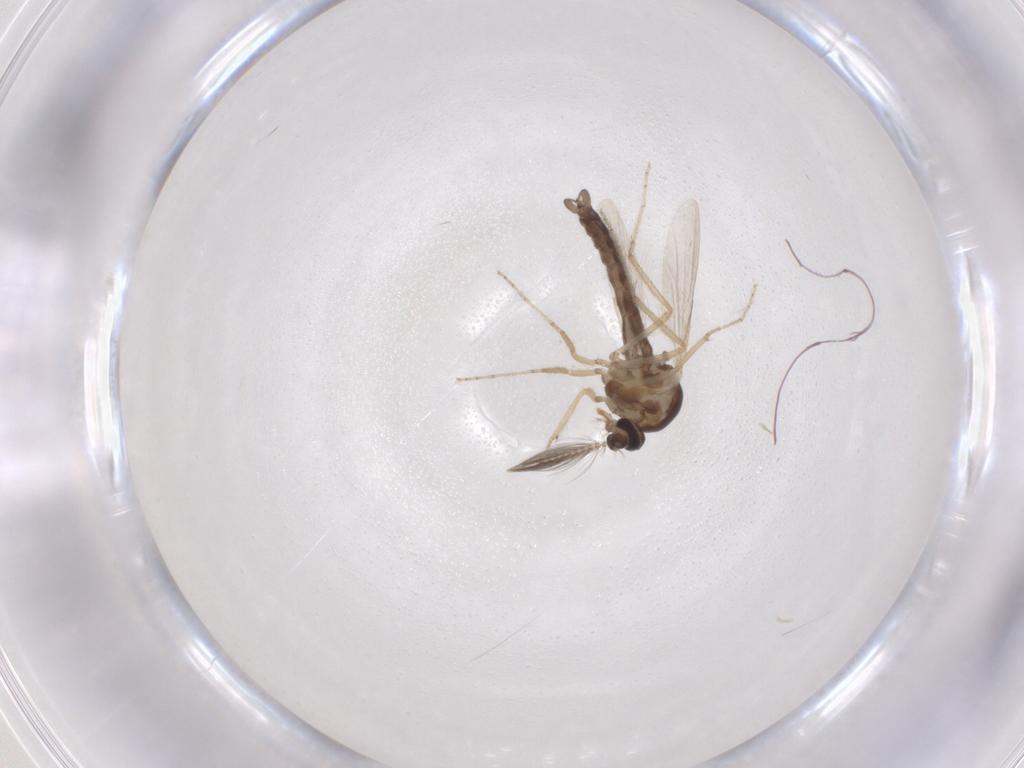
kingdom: Animalia
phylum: Arthropoda
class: Insecta
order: Diptera
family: Ceratopogonidae
